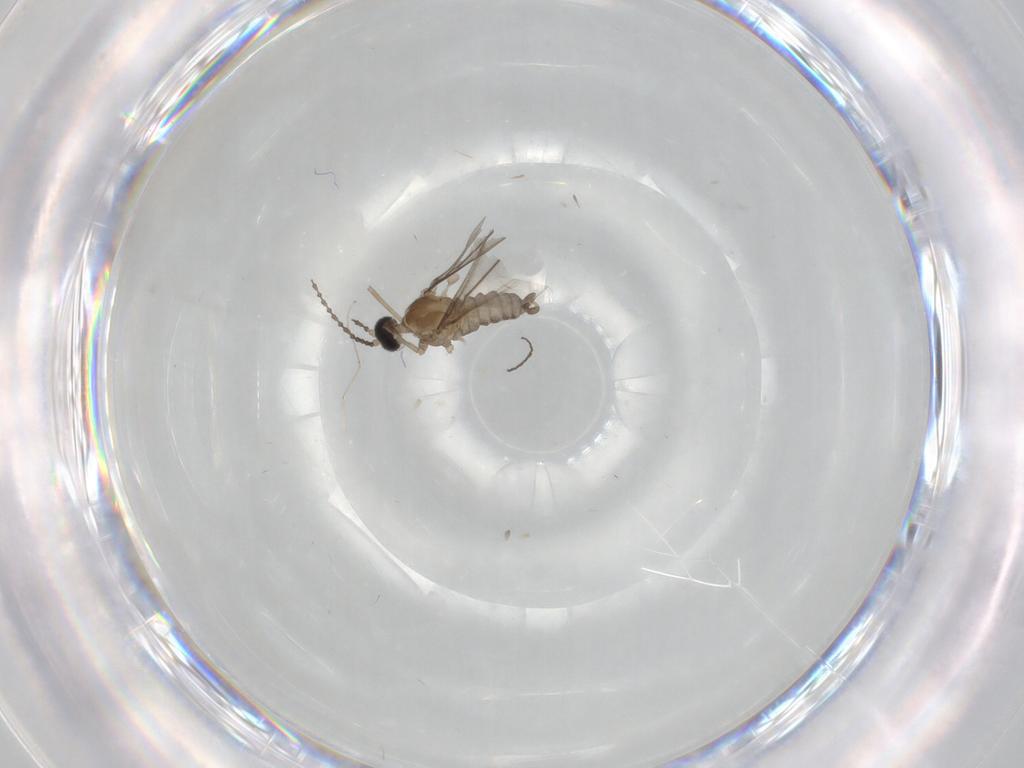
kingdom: Animalia
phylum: Arthropoda
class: Insecta
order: Diptera
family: Cecidomyiidae
